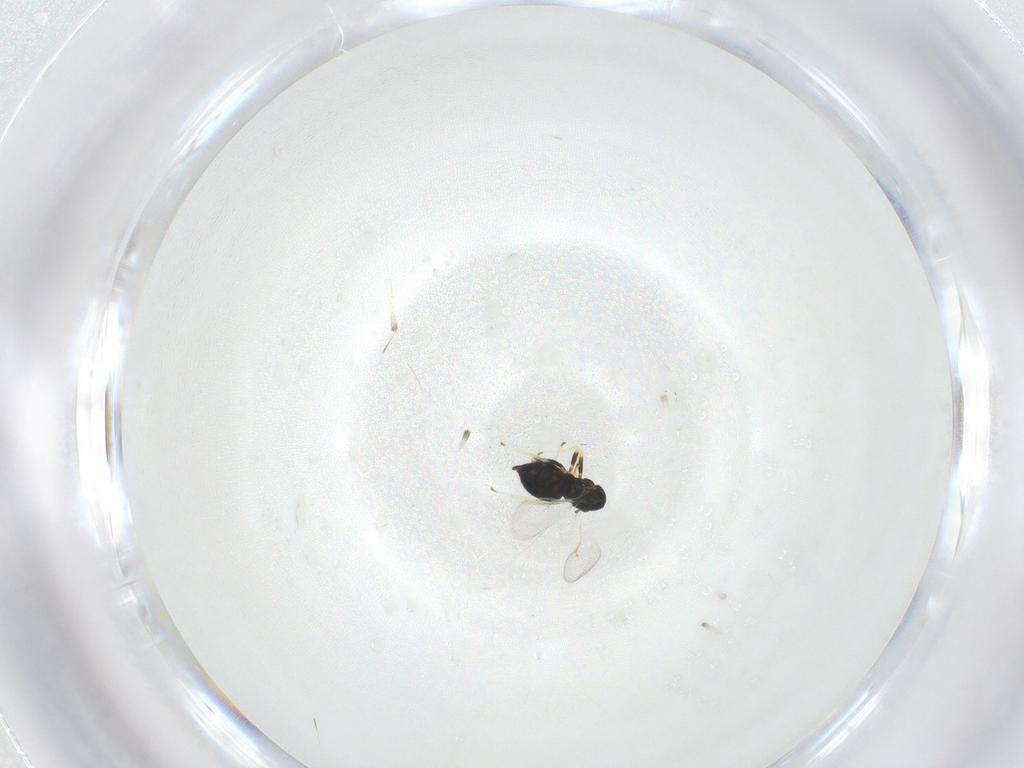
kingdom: Animalia
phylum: Arthropoda
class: Insecta
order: Hymenoptera
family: Eulophidae
